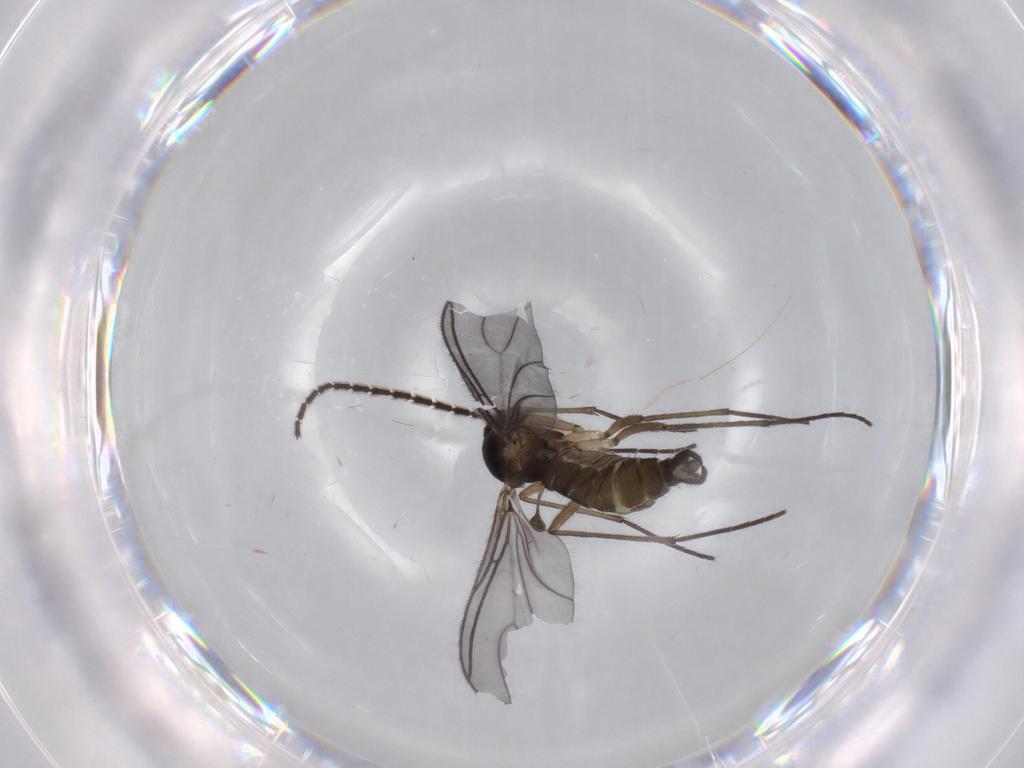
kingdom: Animalia
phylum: Arthropoda
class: Insecta
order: Diptera
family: Chironomidae
